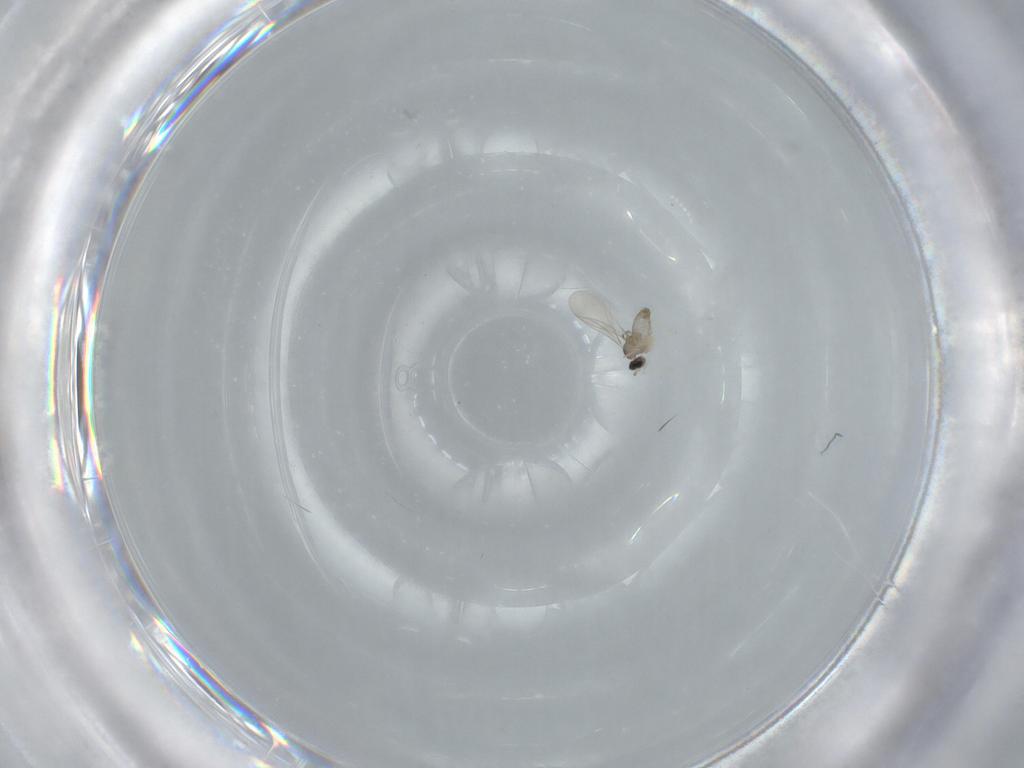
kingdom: Animalia
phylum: Arthropoda
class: Insecta
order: Diptera
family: Cecidomyiidae
